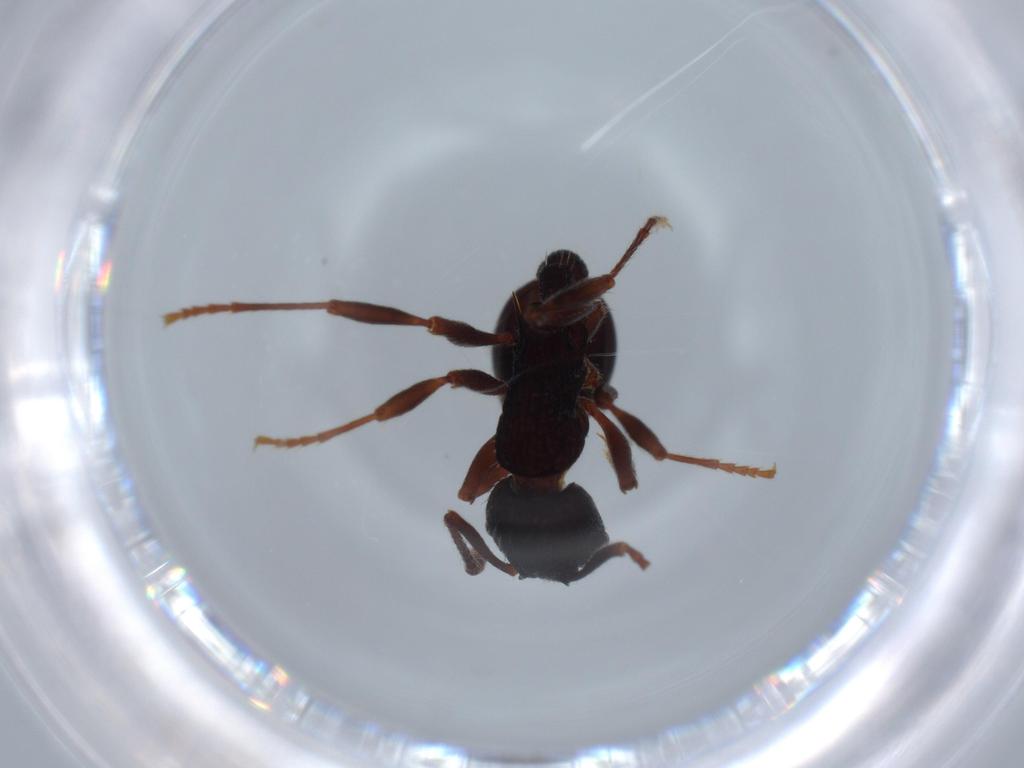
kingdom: Animalia
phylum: Arthropoda
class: Insecta
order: Hymenoptera
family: Formicidae
